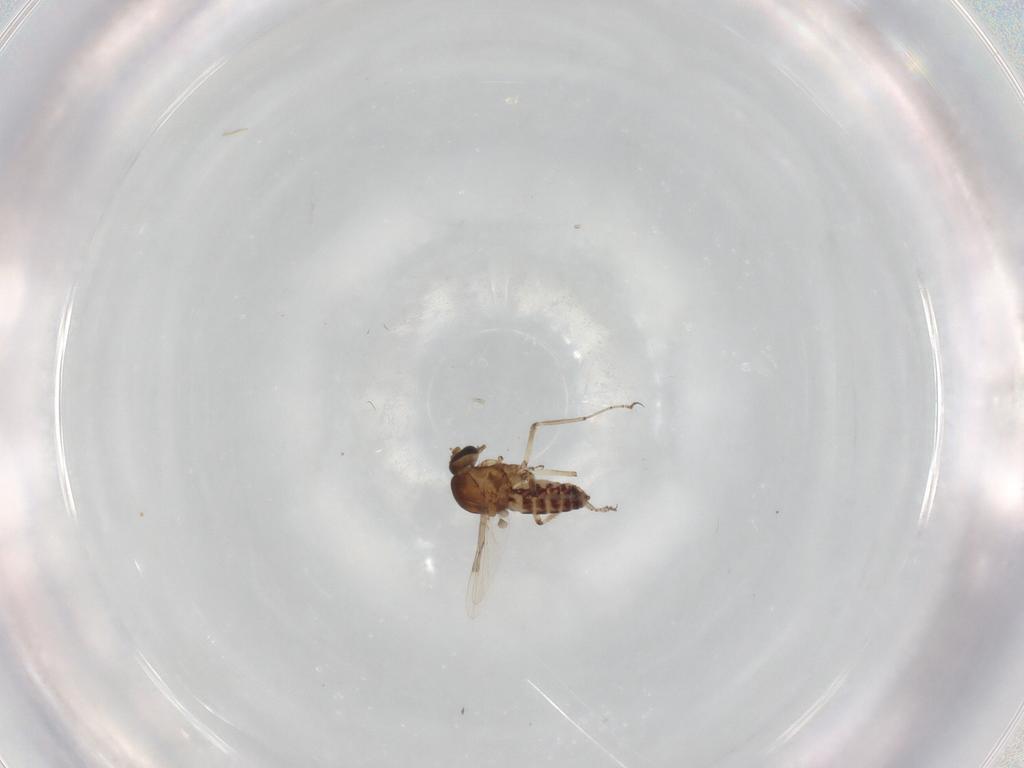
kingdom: Animalia
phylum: Arthropoda
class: Insecta
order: Diptera
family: Ceratopogonidae
